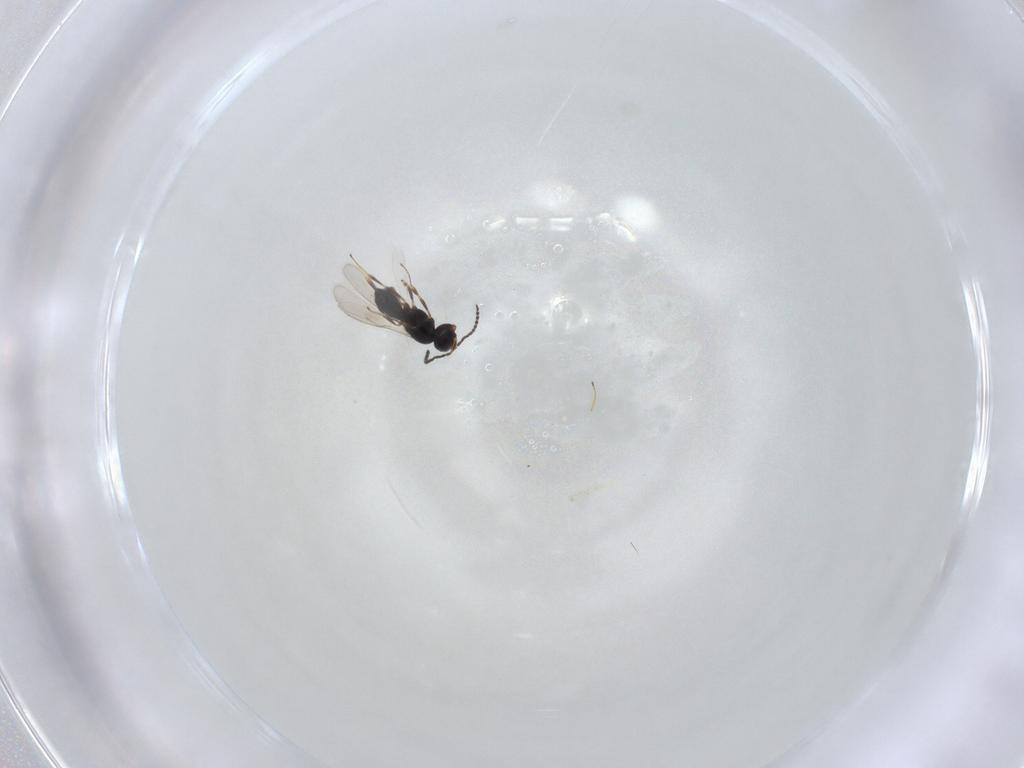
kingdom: Animalia
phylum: Arthropoda
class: Insecta
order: Hymenoptera
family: Scelionidae
